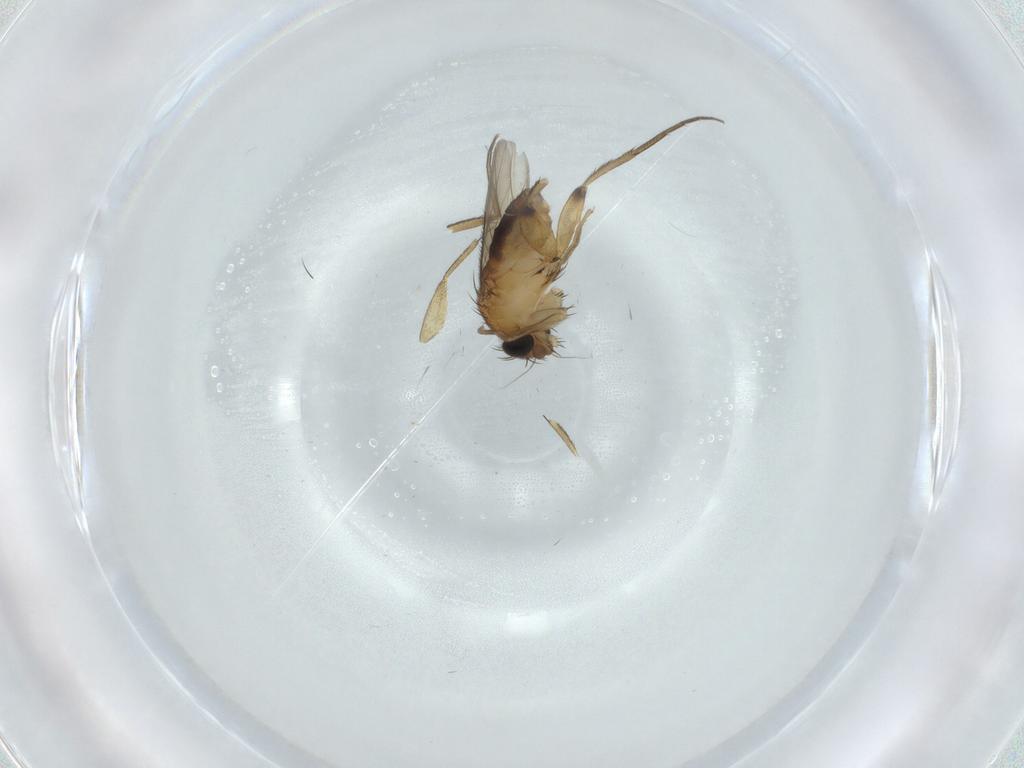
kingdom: Animalia
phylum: Arthropoda
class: Insecta
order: Diptera
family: Phoridae
